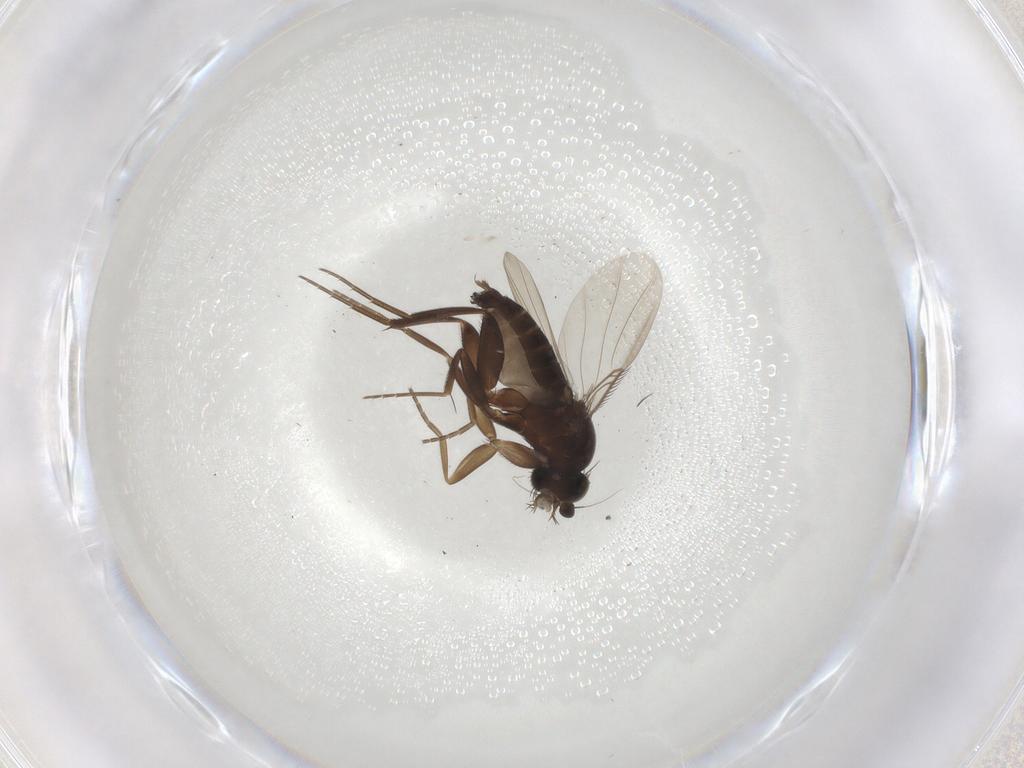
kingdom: Animalia
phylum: Arthropoda
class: Insecta
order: Diptera
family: Phoridae
